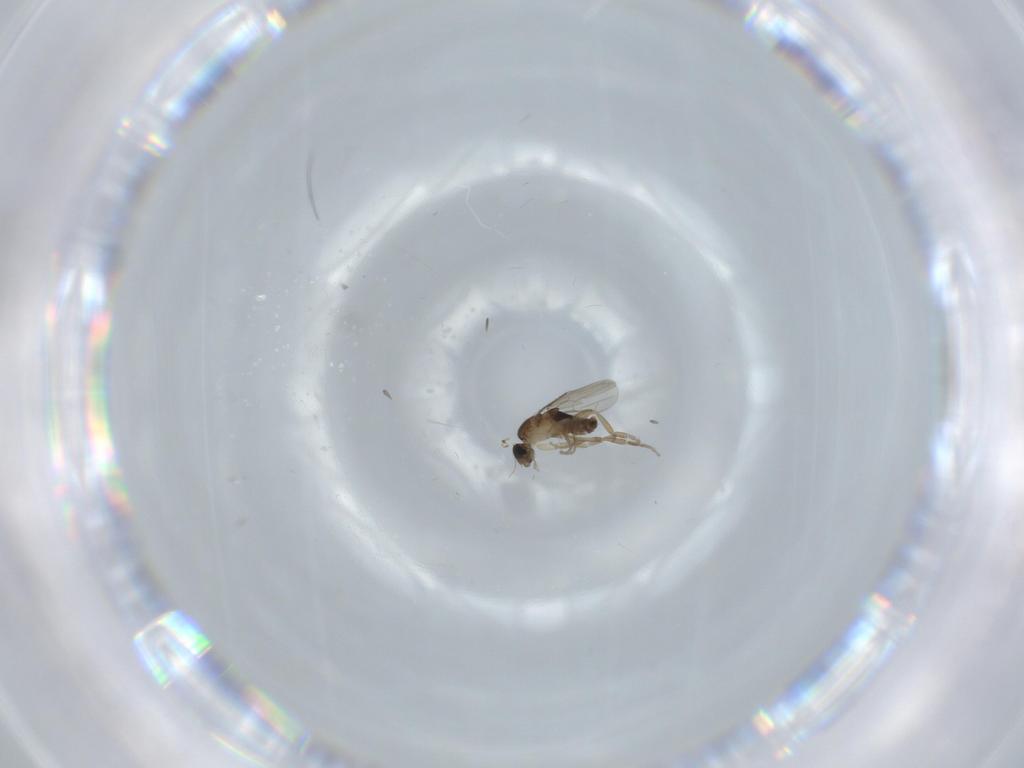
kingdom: Animalia
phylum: Arthropoda
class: Insecta
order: Diptera
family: Phoridae
